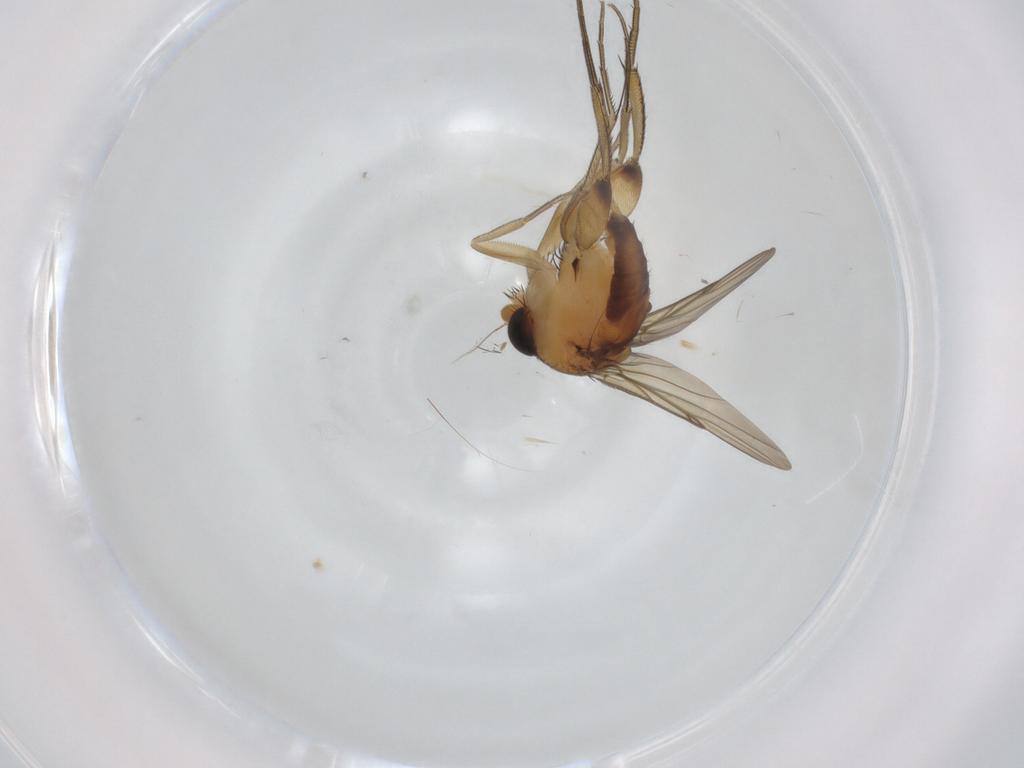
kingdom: Animalia
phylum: Arthropoda
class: Insecta
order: Diptera
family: Phoridae
